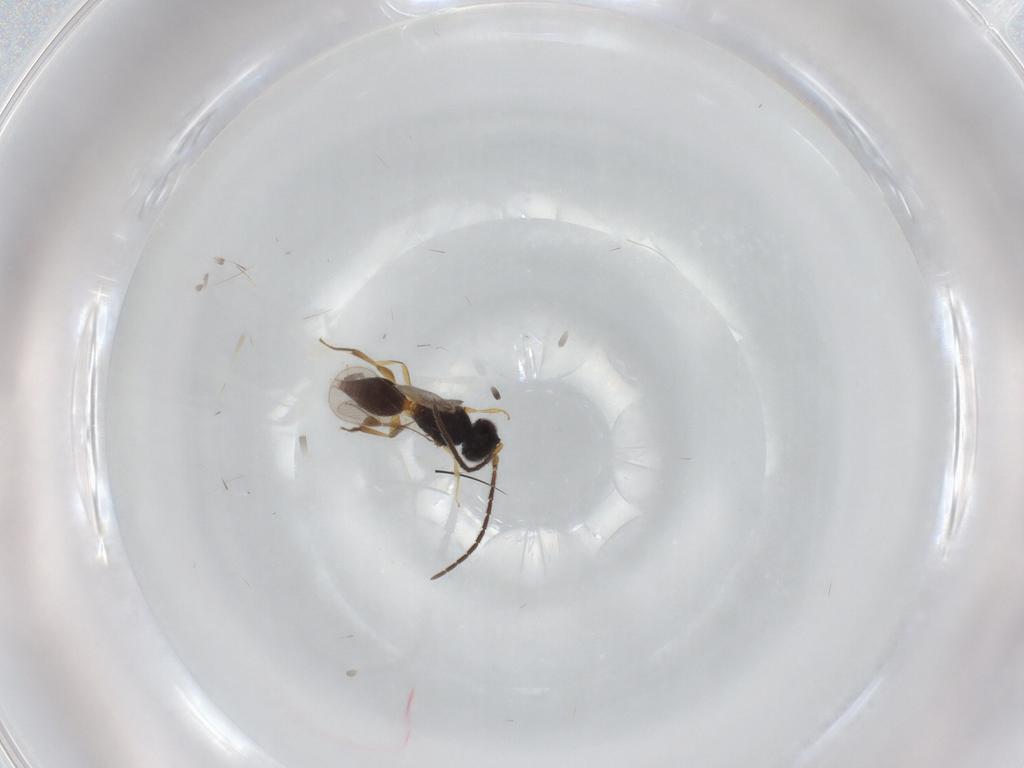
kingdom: Animalia
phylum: Arthropoda
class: Insecta
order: Hymenoptera
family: Megaspilidae
